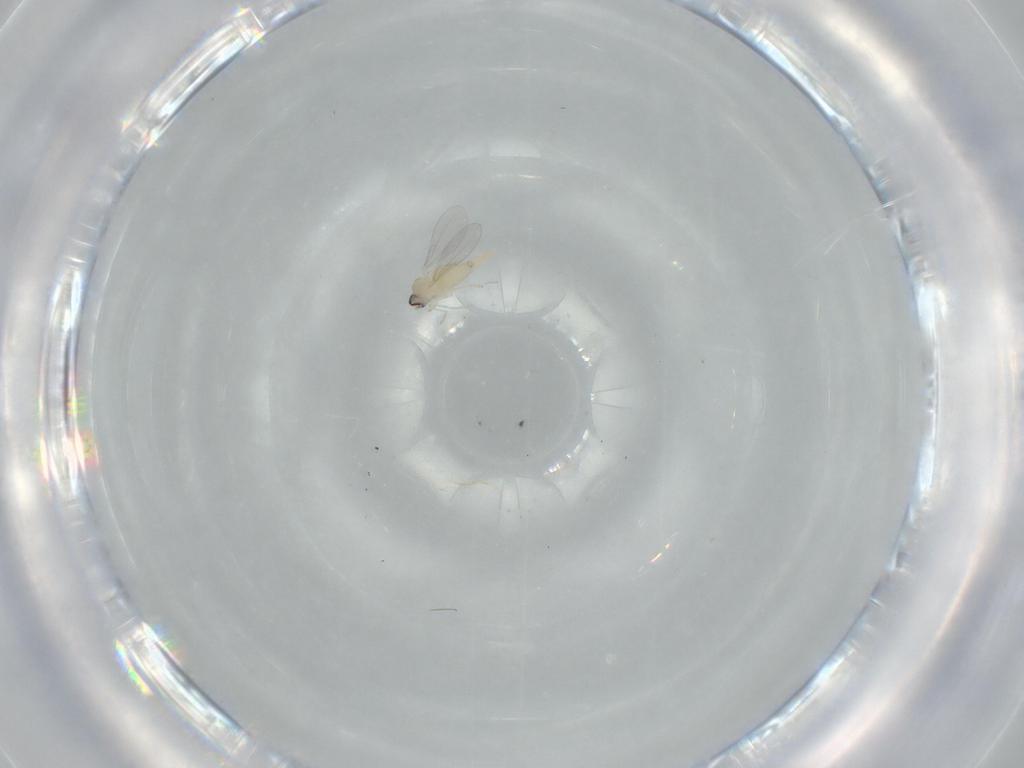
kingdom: Animalia
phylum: Arthropoda
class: Insecta
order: Diptera
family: Cecidomyiidae
